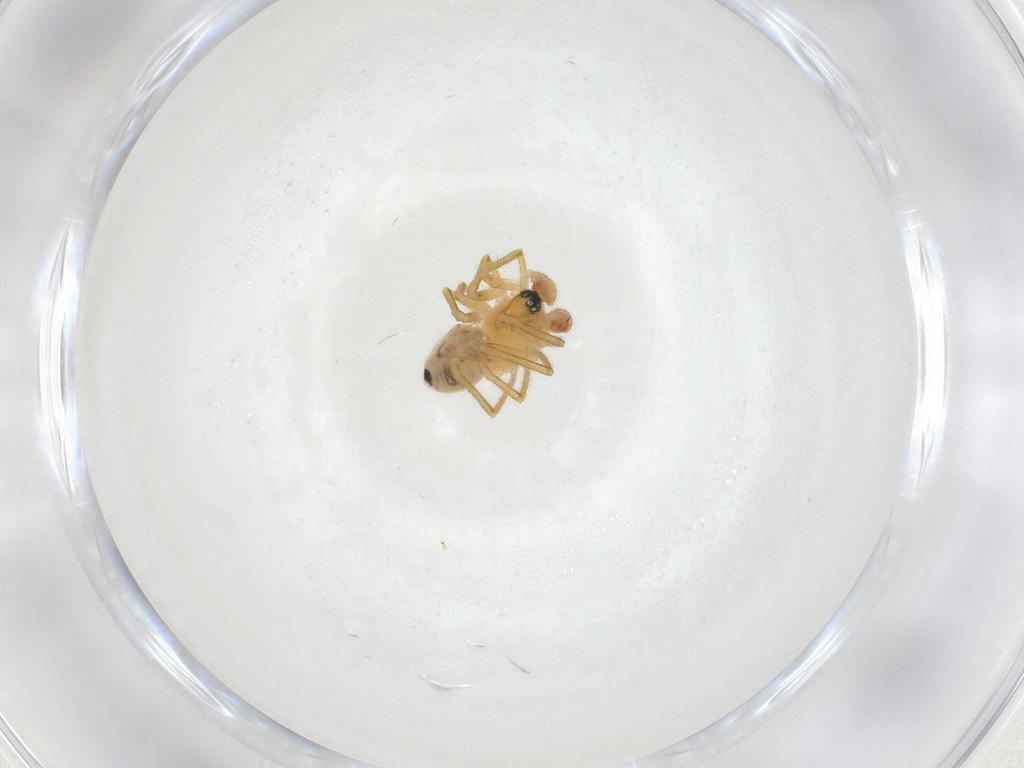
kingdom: Animalia
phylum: Arthropoda
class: Arachnida
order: Araneae
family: Linyphiidae
